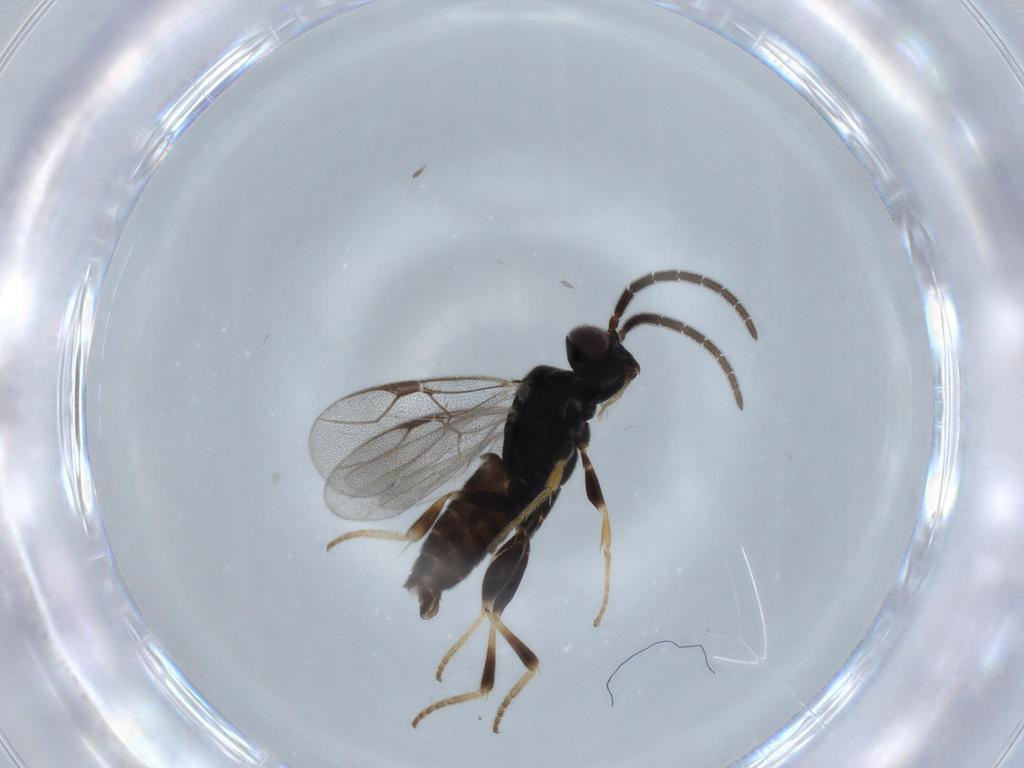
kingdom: Animalia
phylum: Arthropoda
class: Insecta
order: Hymenoptera
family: Dryinidae
